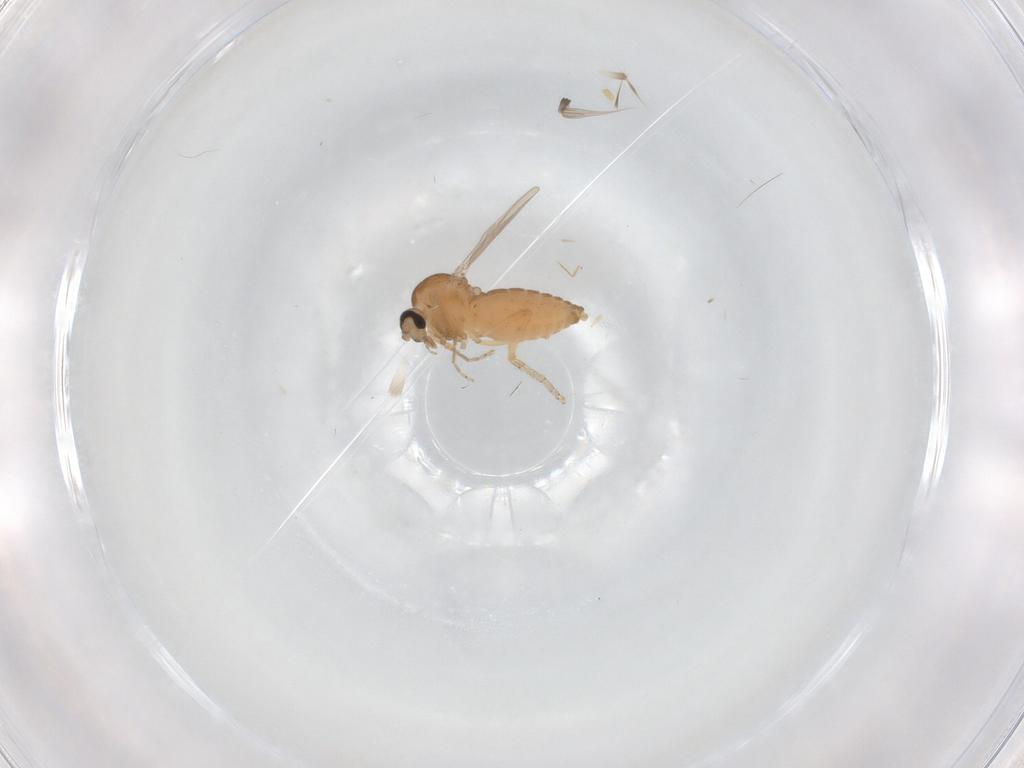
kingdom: Animalia
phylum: Arthropoda
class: Insecta
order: Diptera
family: Ceratopogonidae
